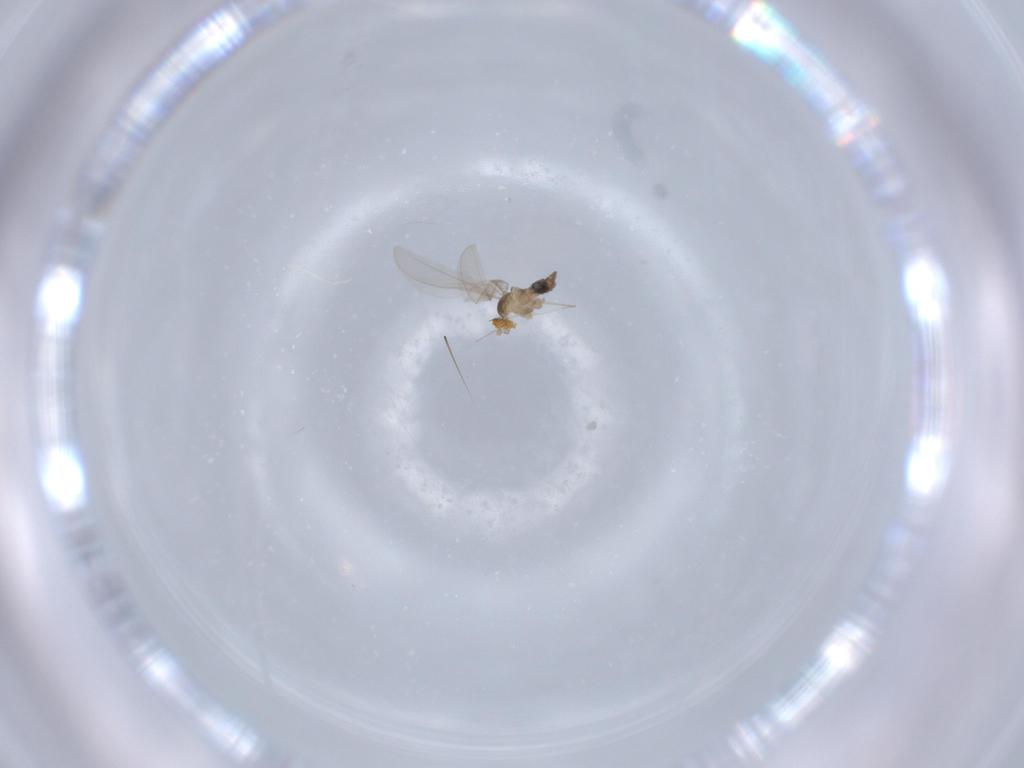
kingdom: Animalia
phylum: Arthropoda
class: Insecta
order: Diptera
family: Cecidomyiidae
